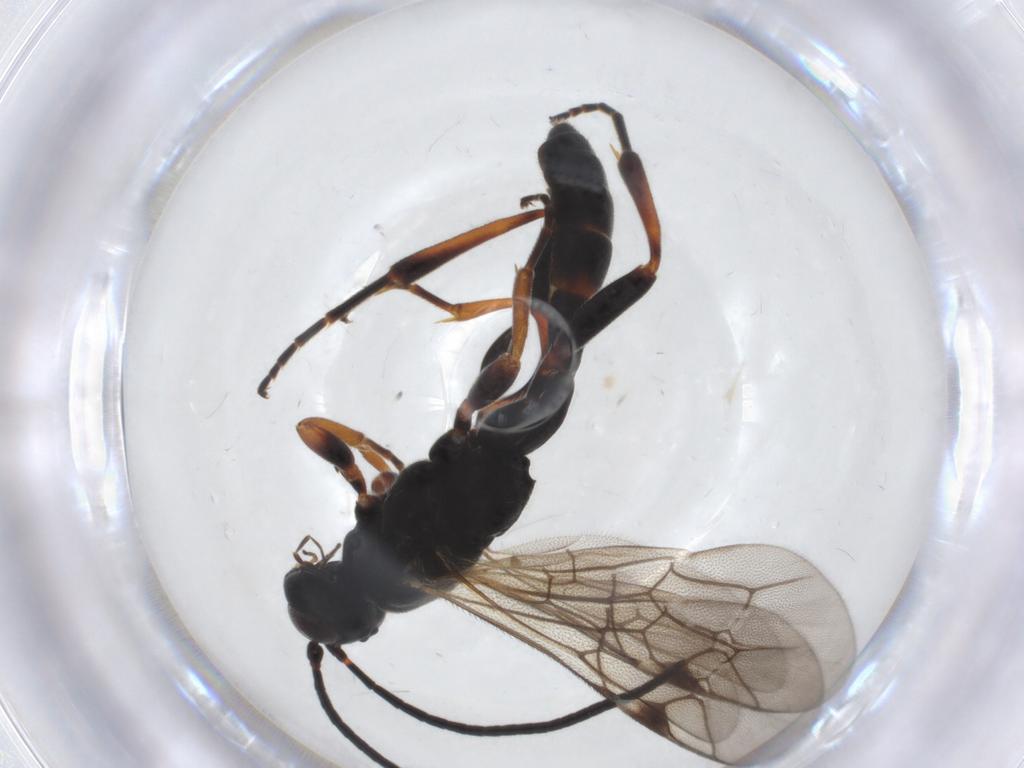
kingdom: Animalia
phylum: Arthropoda
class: Insecta
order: Hymenoptera
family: Ichneumonidae
